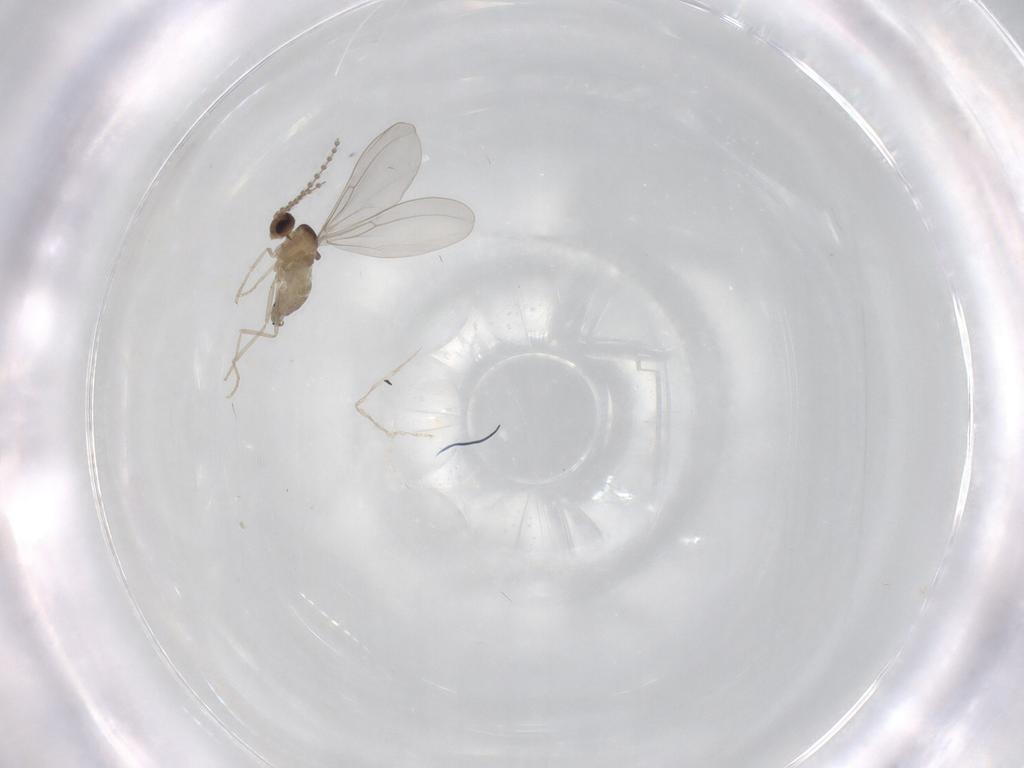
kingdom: Animalia
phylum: Arthropoda
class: Insecta
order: Diptera
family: Cecidomyiidae
